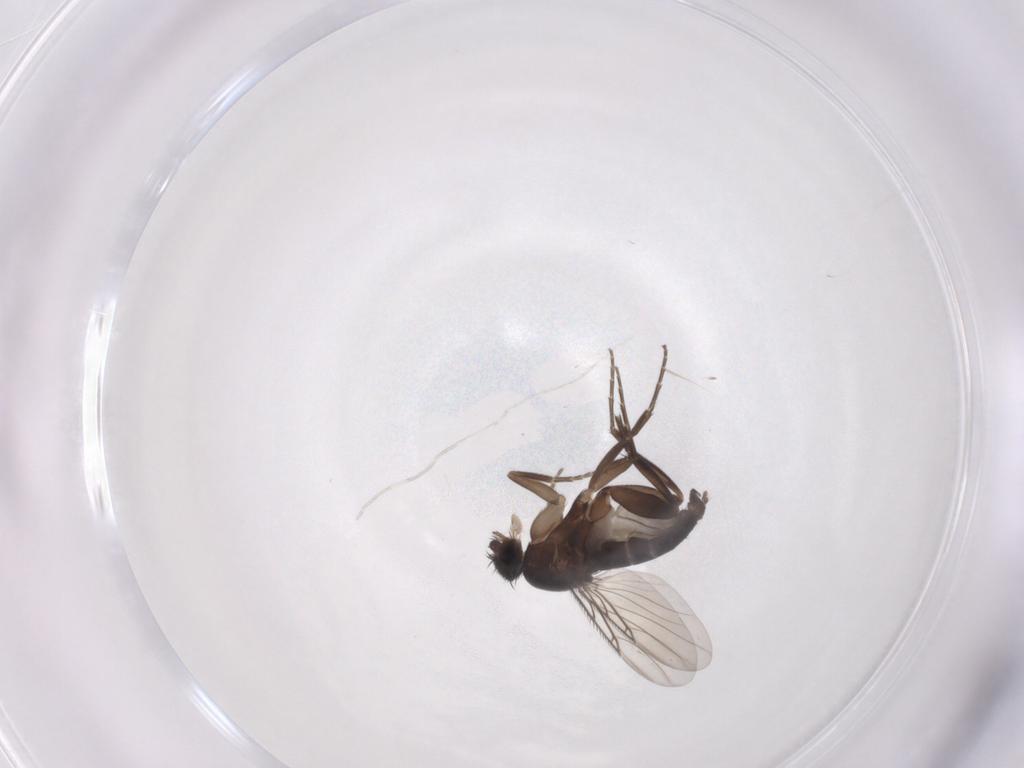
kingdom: Animalia
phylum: Arthropoda
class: Insecta
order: Diptera
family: Phoridae
